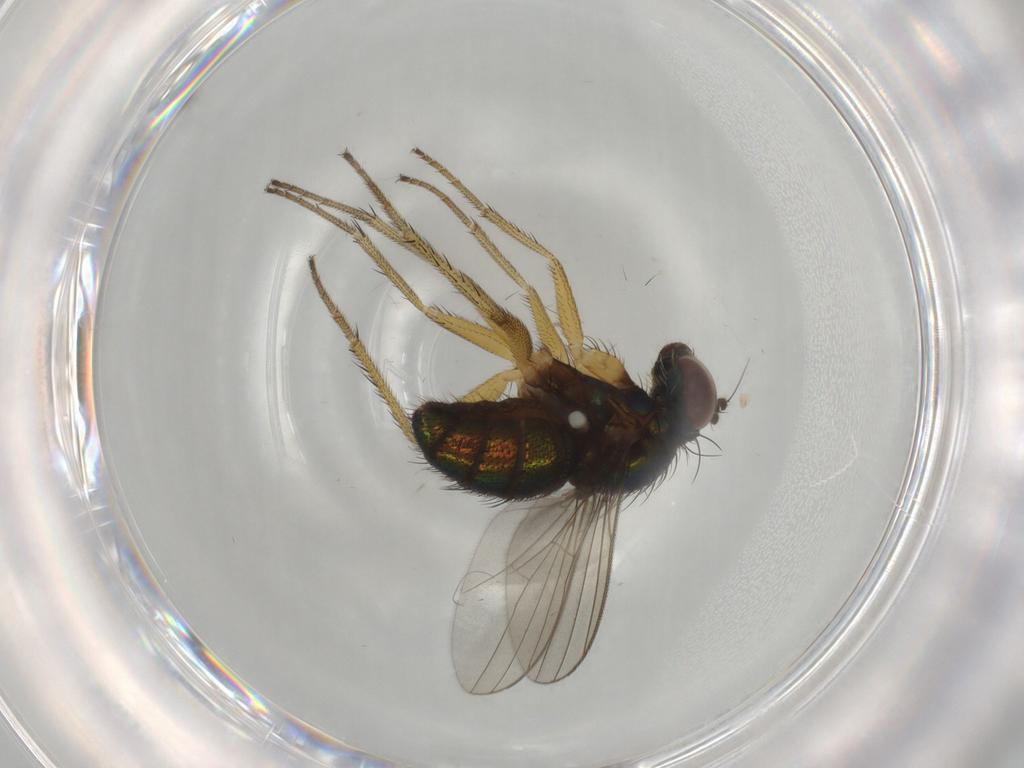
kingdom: Animalia
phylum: Arthropoda
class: Insecta
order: Diptera
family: Dolichopodidae
